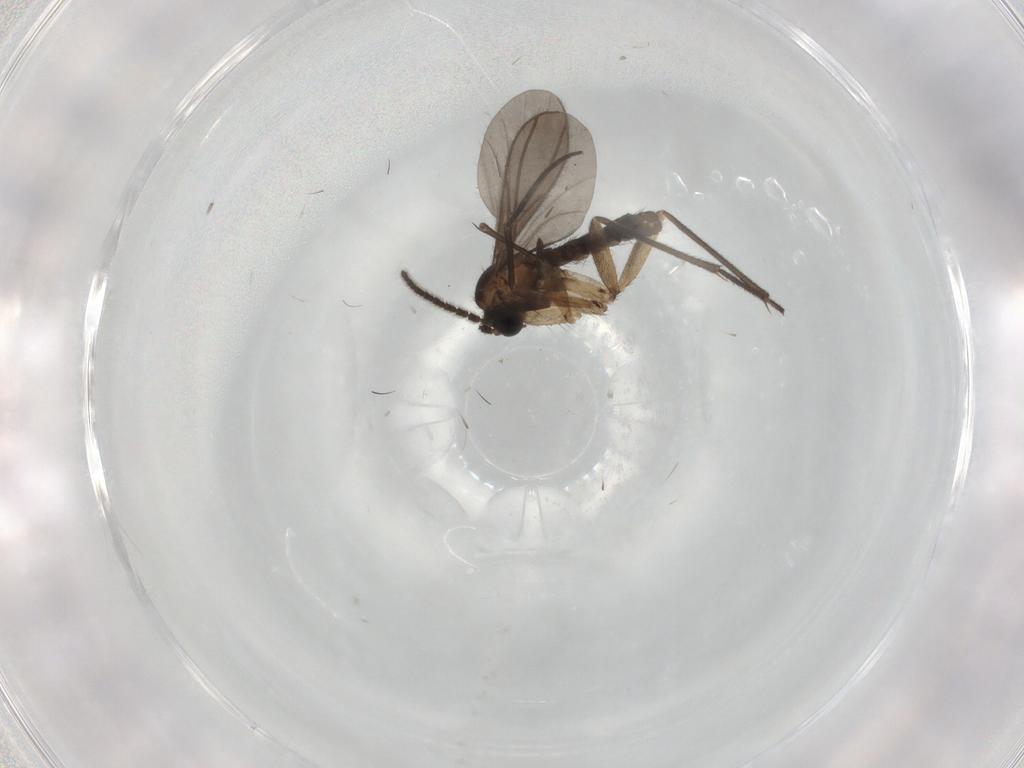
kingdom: Animalia
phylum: Arthropoda
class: Insecta
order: Diptera
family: Sciaridae
